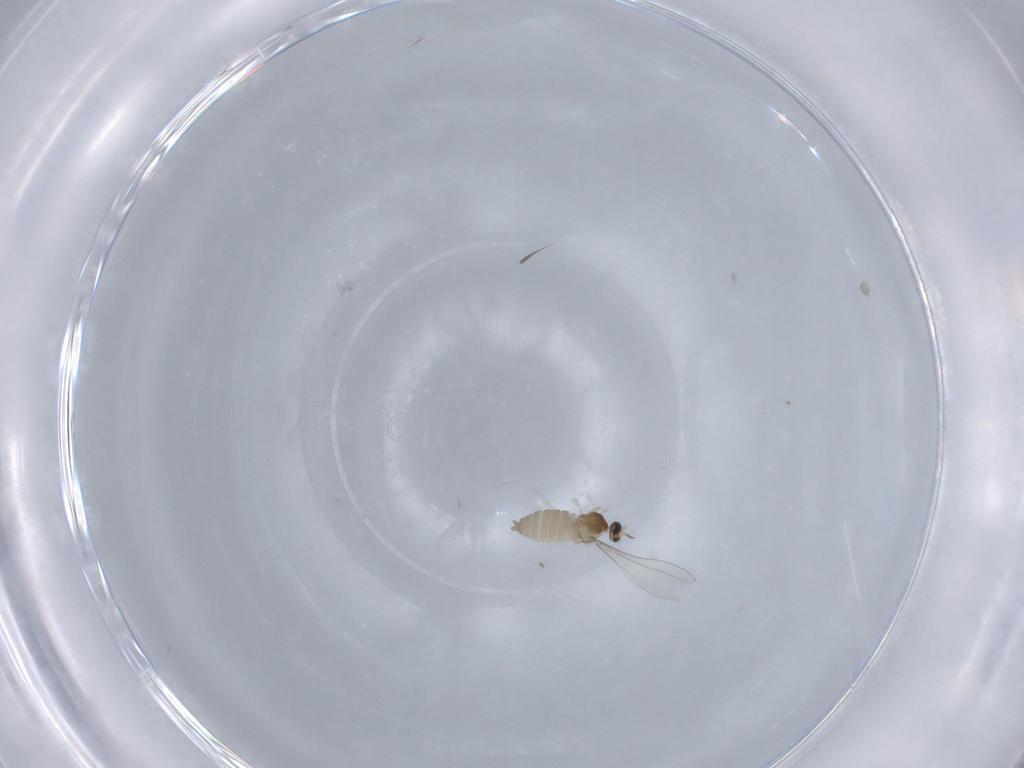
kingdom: Animalia
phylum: Arthropoda
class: Insecta
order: Diptera
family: Cecidomyiidae
